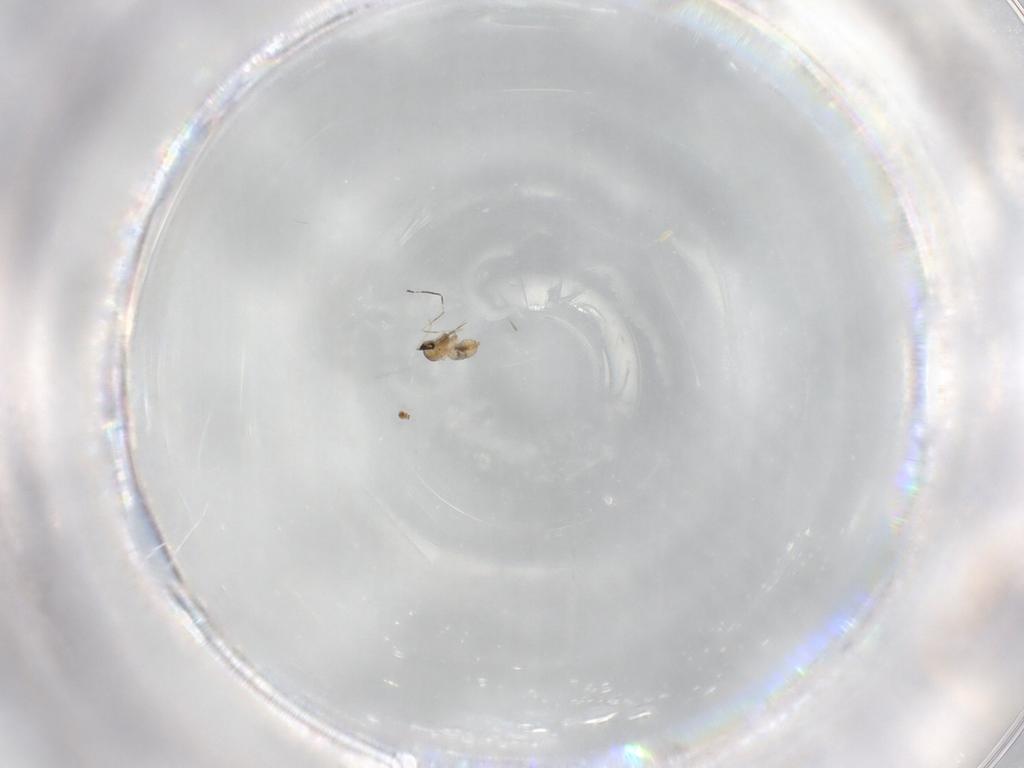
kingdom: Animalia
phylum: Arthropoda
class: Insecta
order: Diptera
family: Cecidomyiidae
